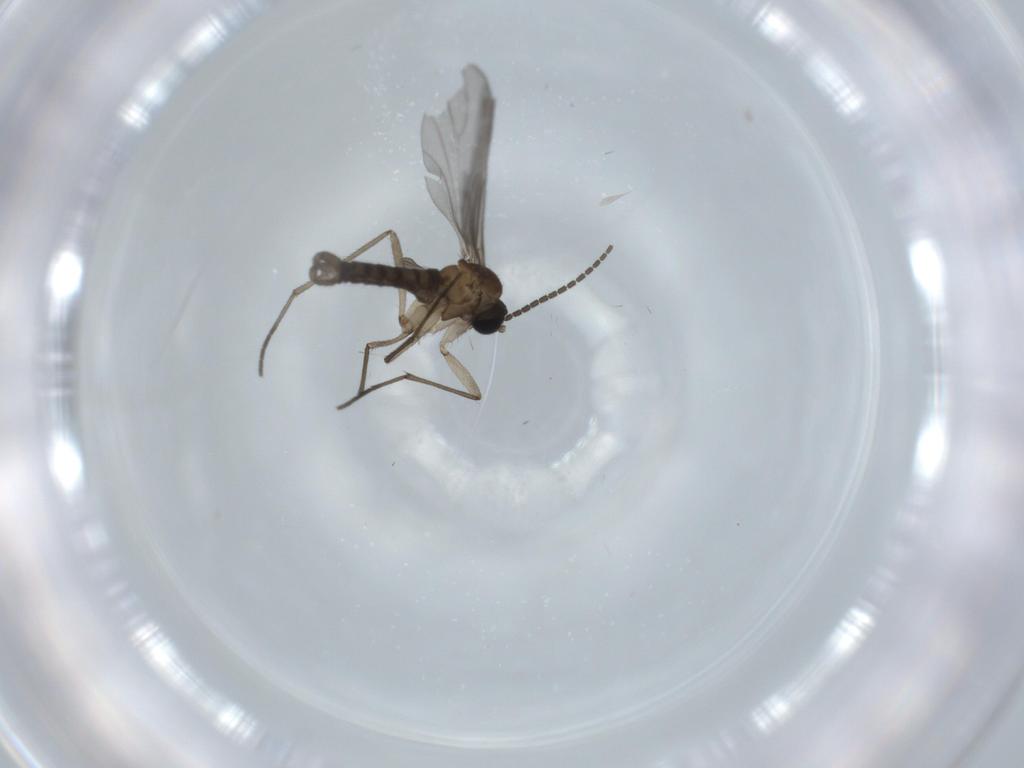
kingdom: Animalia
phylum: Arthropoda
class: Insecta
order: Diptera
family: Sciaridae
